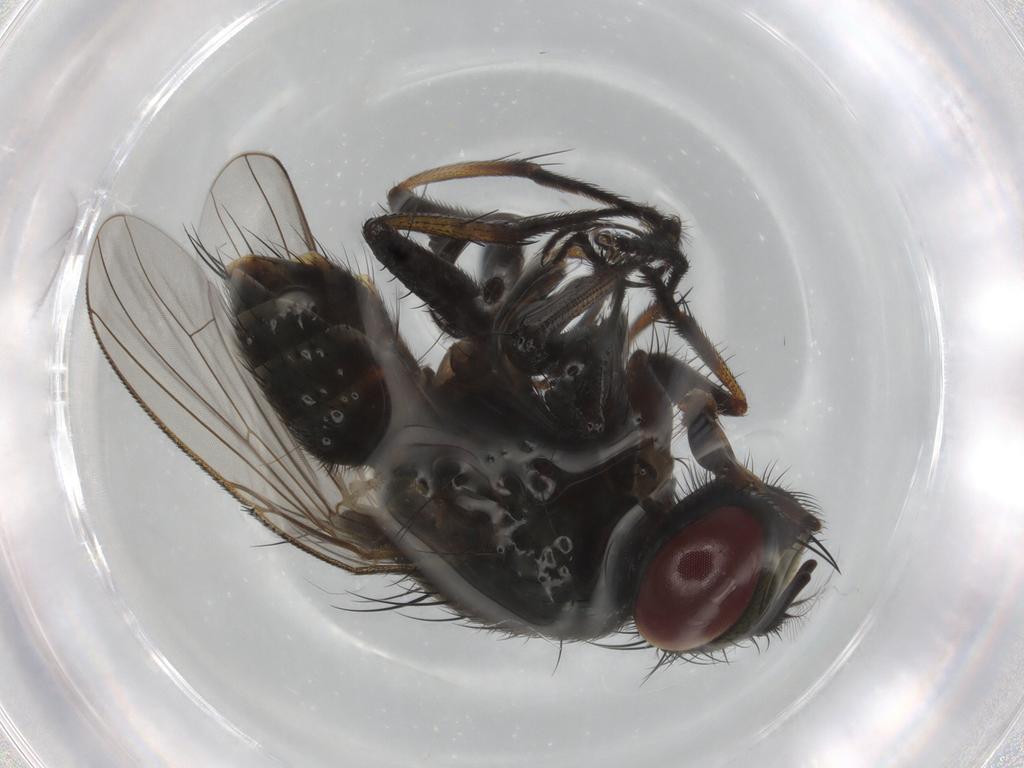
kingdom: Animalia
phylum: Arthropoda
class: Insecta
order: Diptera
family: Muscidae
